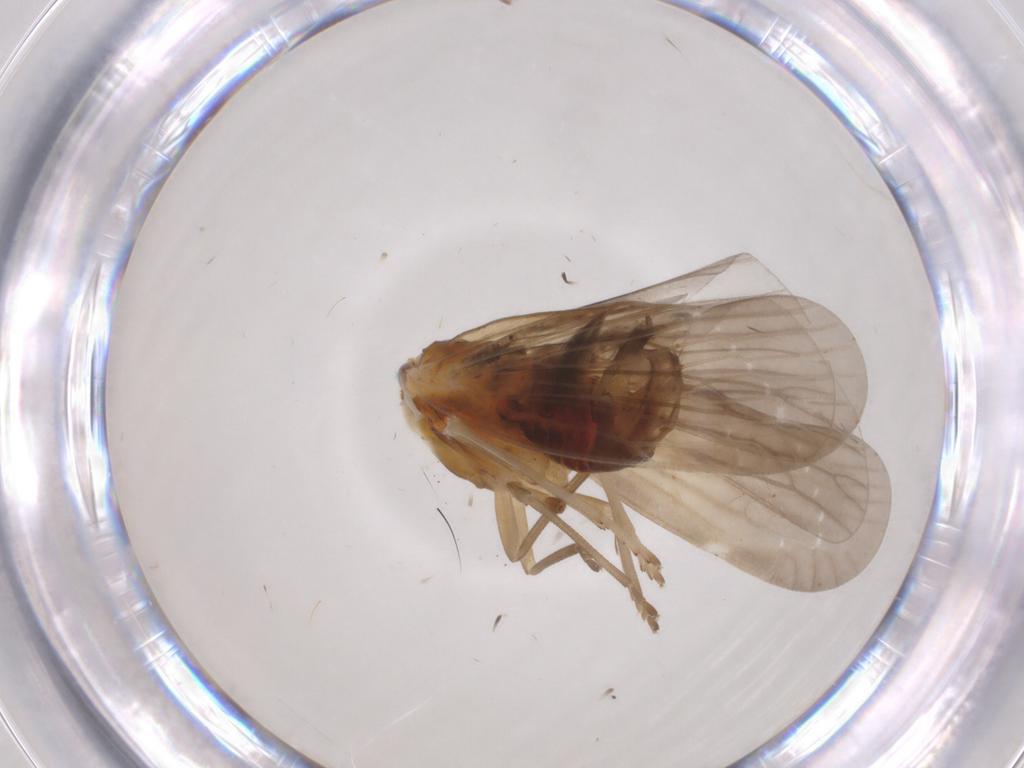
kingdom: Animalia
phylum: Arthropoda
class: Insecta
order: Hemiptera
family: Derbidae
